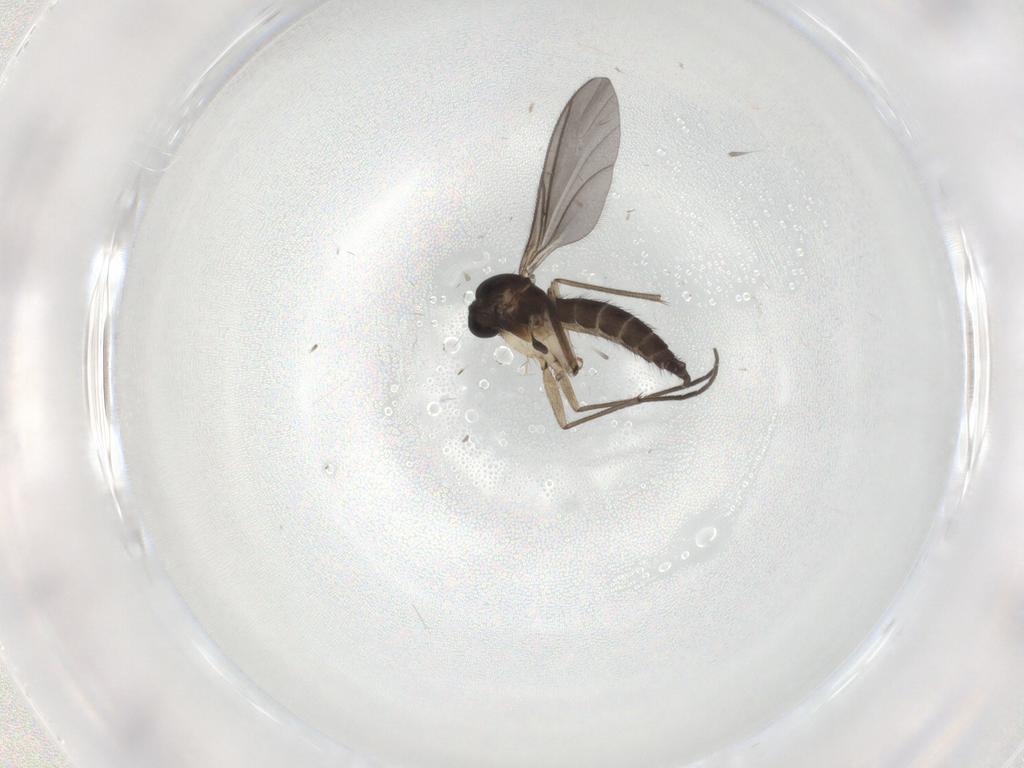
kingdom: Animalia
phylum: Arthropoda
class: Insecta
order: Diptera
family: Sciaridae
